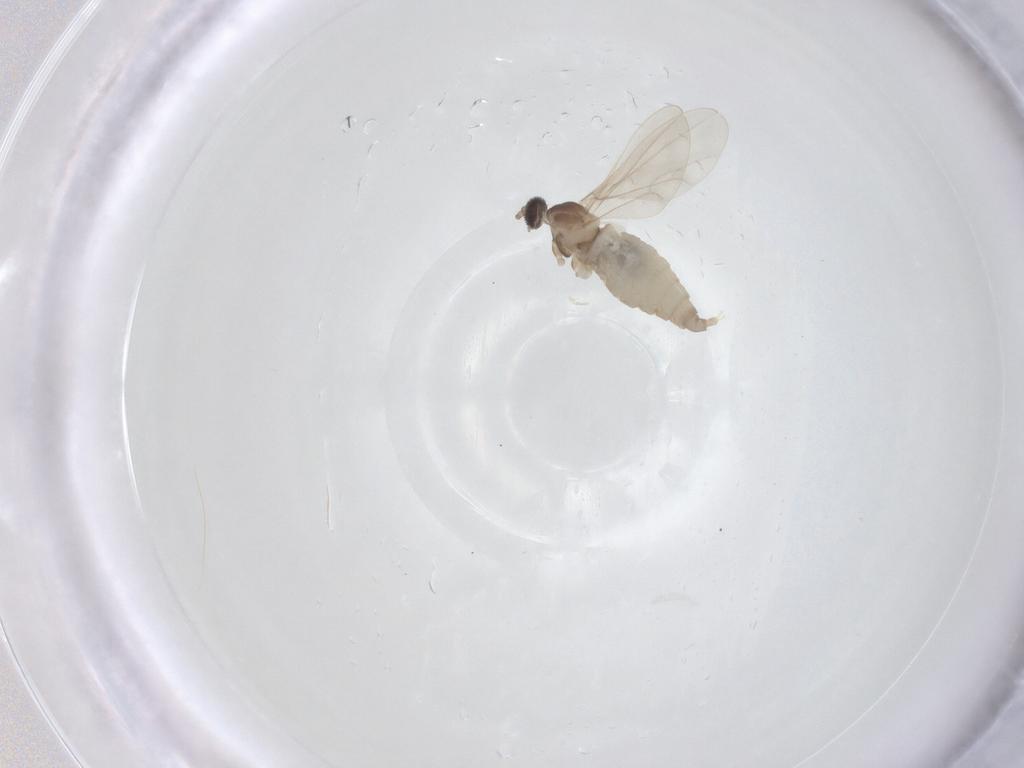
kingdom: Animalia
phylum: Arthropoda
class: Insecta
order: Diptera
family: Cecidomyiidae
